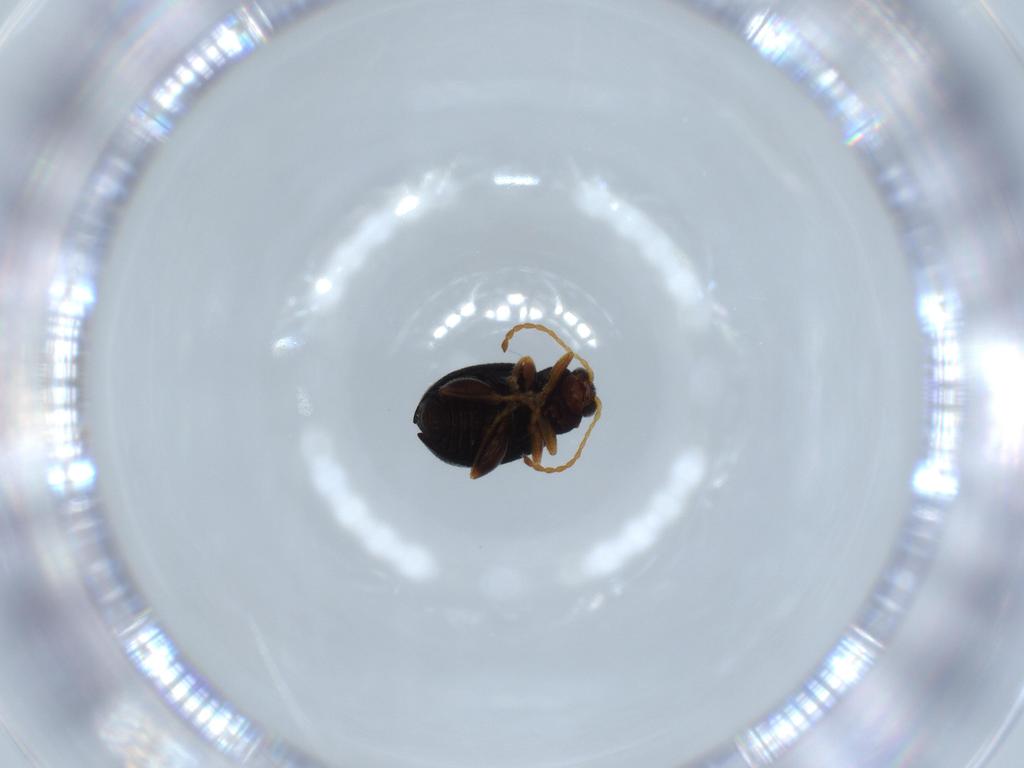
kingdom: Animalia
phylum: Arthropoda
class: Insecta
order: Coleoptera
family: Chrysomelidae
